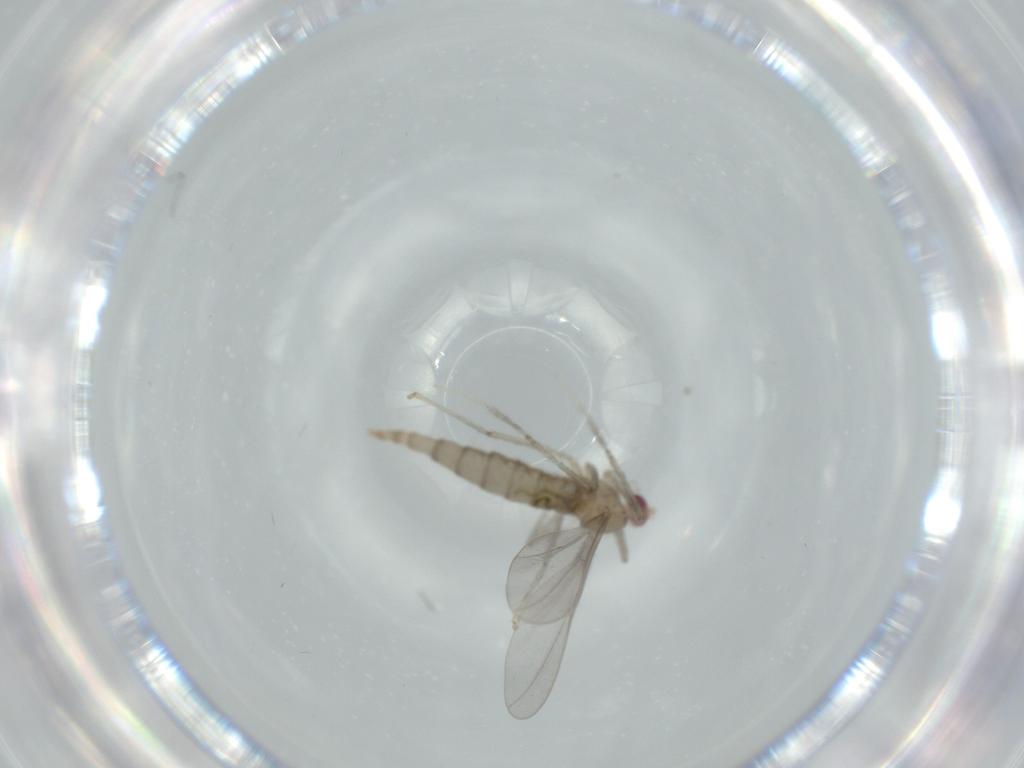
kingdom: Animalia
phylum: Arthropoda
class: Insecta
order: Diptera
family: Cecidomyiidae
